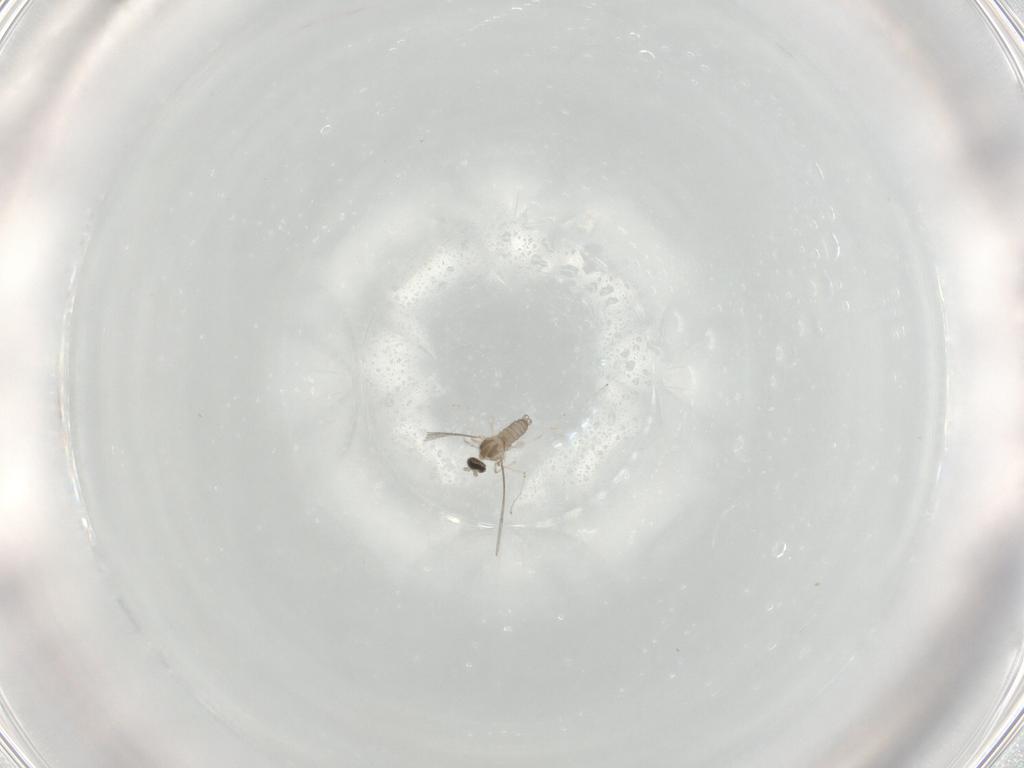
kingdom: Animalia
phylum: Arthropoda
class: Insecta
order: Diptera
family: Cecidomyiidae
